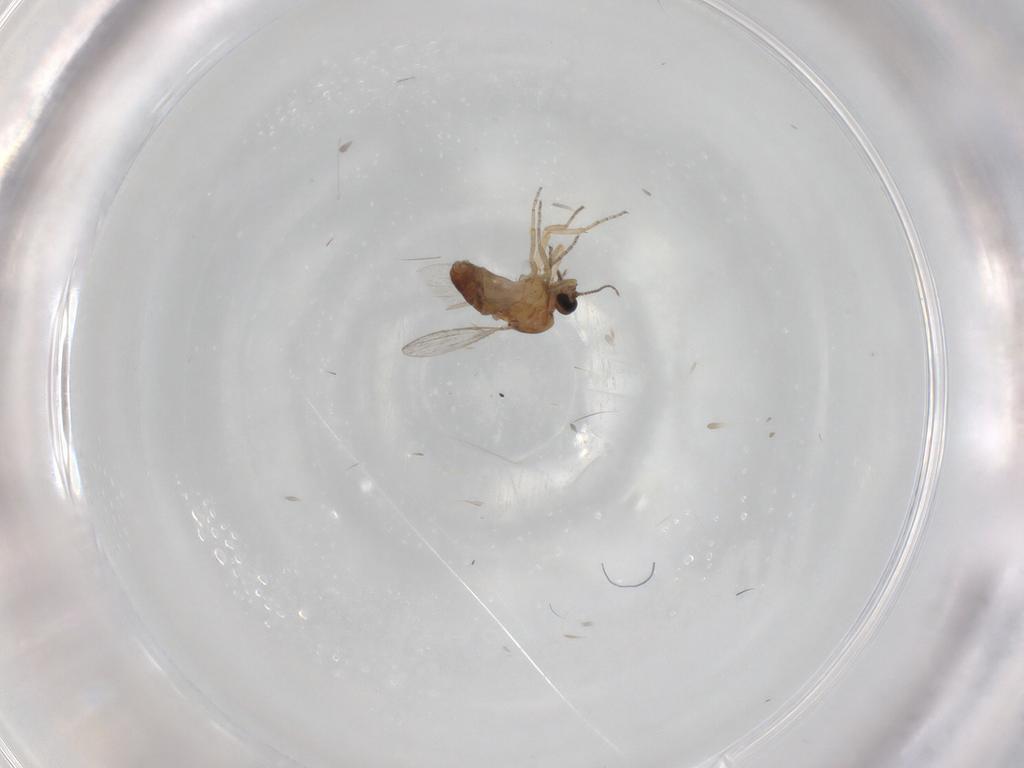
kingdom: Animalia
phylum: Arthropoda
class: Insecta
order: Diptera
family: Ceratopogonidae
